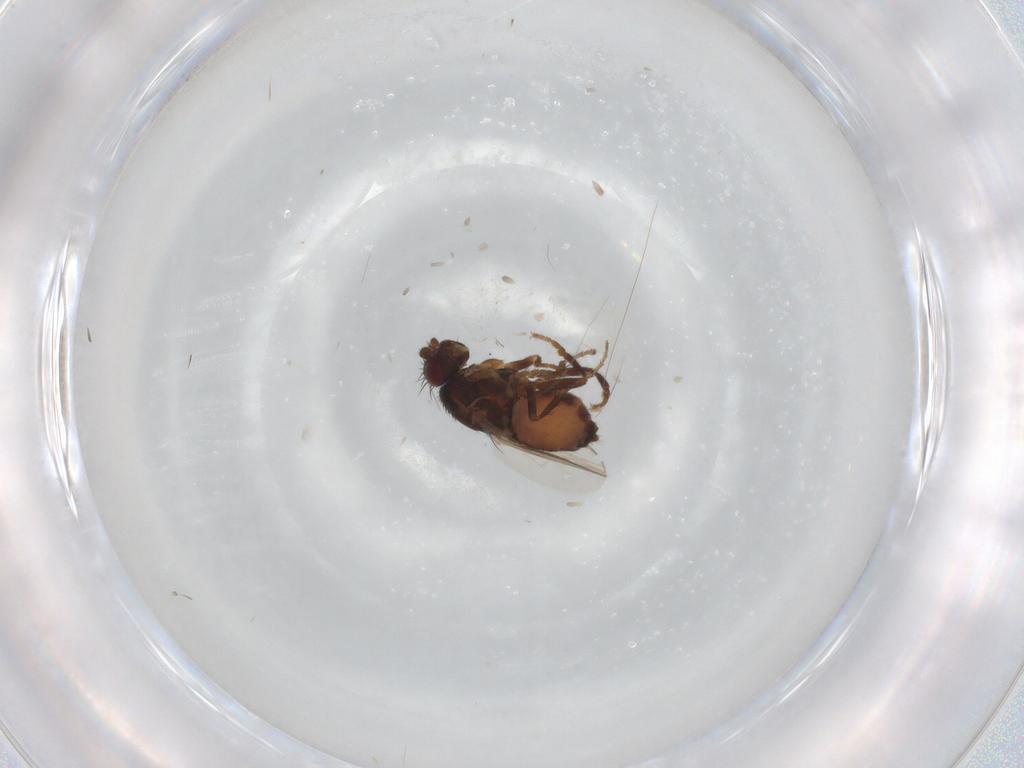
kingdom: Animalia
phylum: Arthropoda
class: Insecta
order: Diptera
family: Sphaeroceridae
